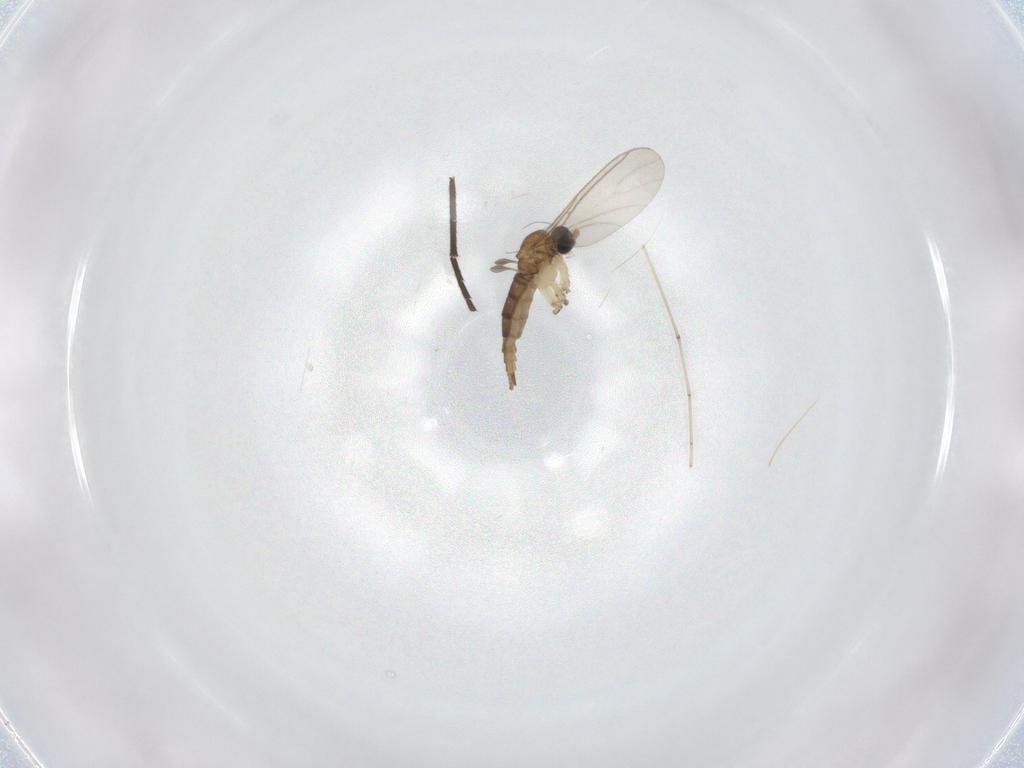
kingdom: Animalia
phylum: Arthropoda
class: Insecta
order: Diptera
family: Cecidomyiidae
